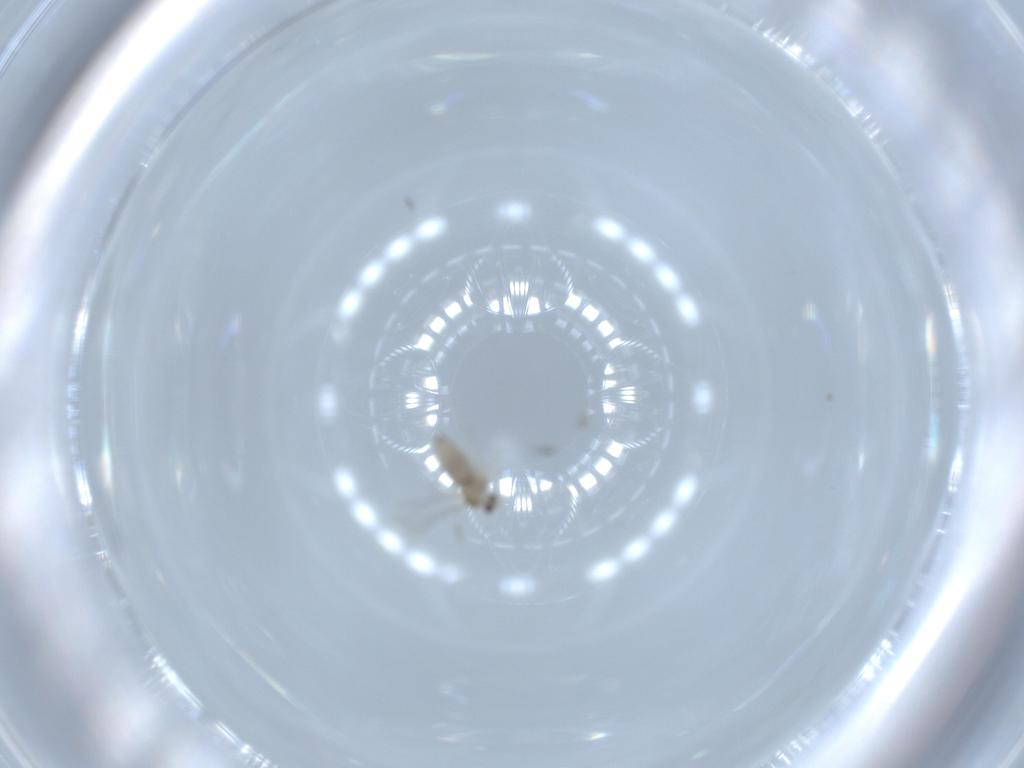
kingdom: Animalia
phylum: Arthropoda
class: Insecta
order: Diptera
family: Cecidomyiidae
